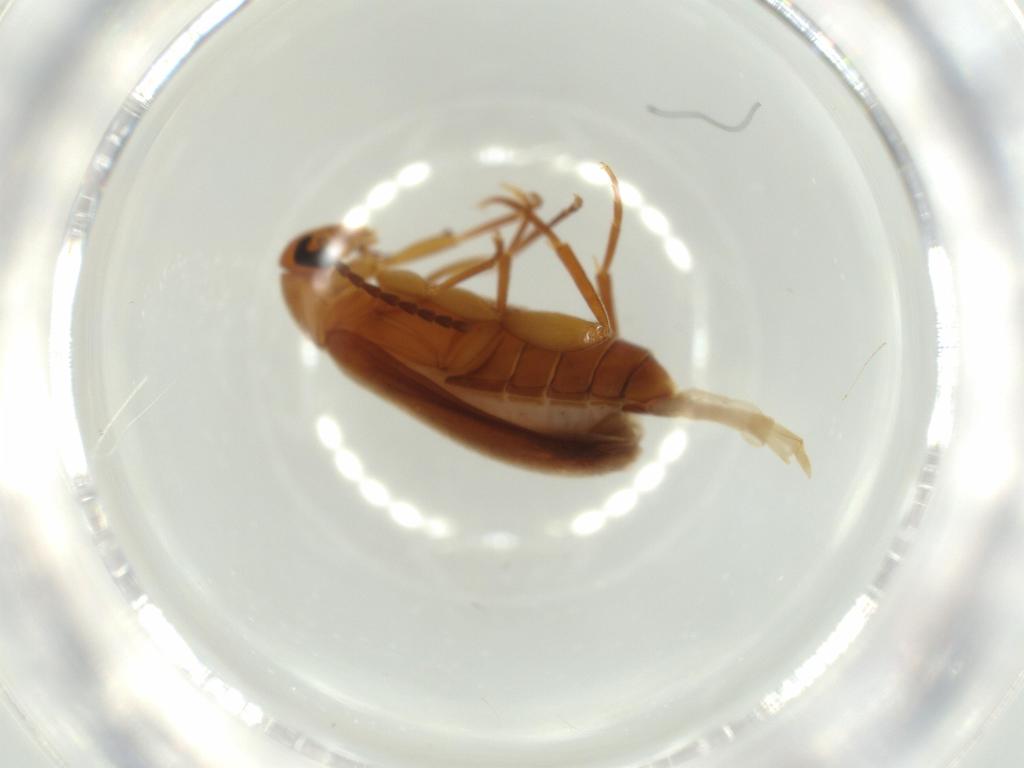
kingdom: Animalia
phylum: Arthropoda
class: Insecta
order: Coleoptera
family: Scraptiidae
